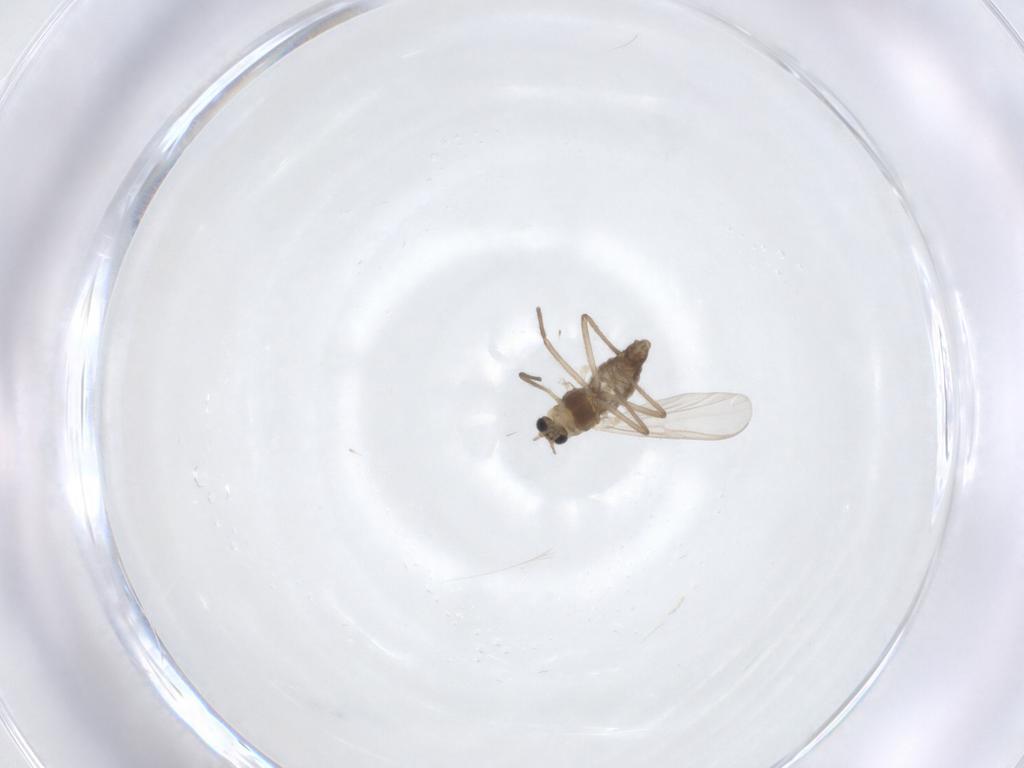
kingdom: Animalia
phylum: Arthropoda
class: Insecta
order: Diptera
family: Chironomidae
